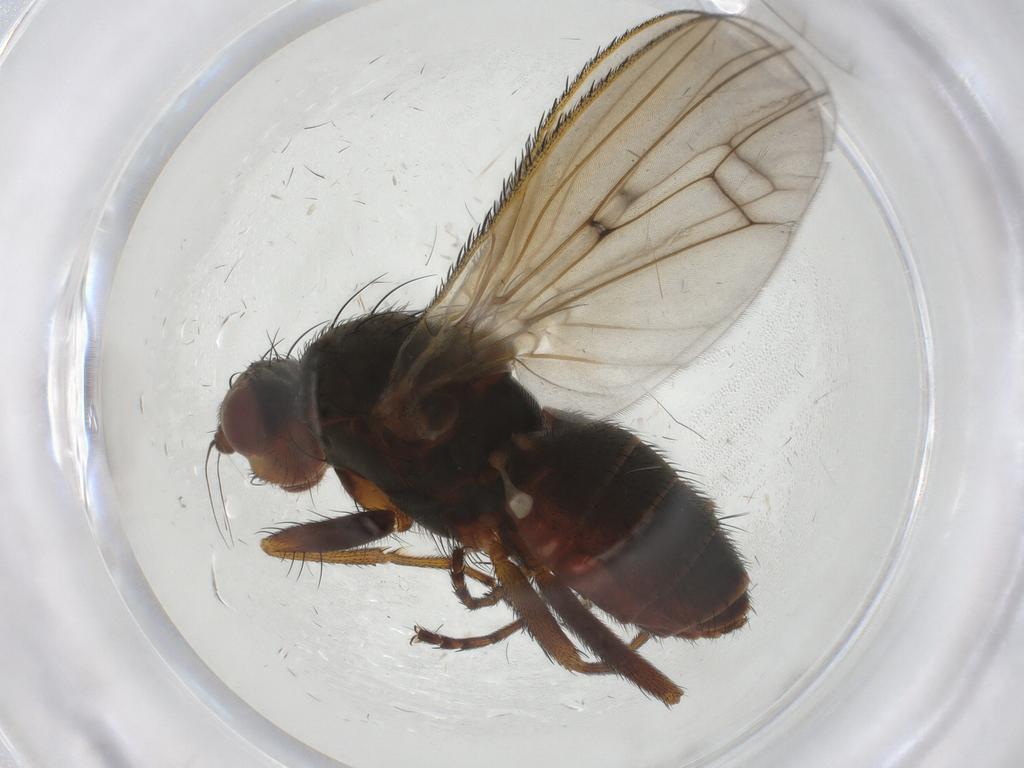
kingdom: Animalia
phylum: Arthropoda
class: Insecta
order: Diptera
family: Heleomyzidae
